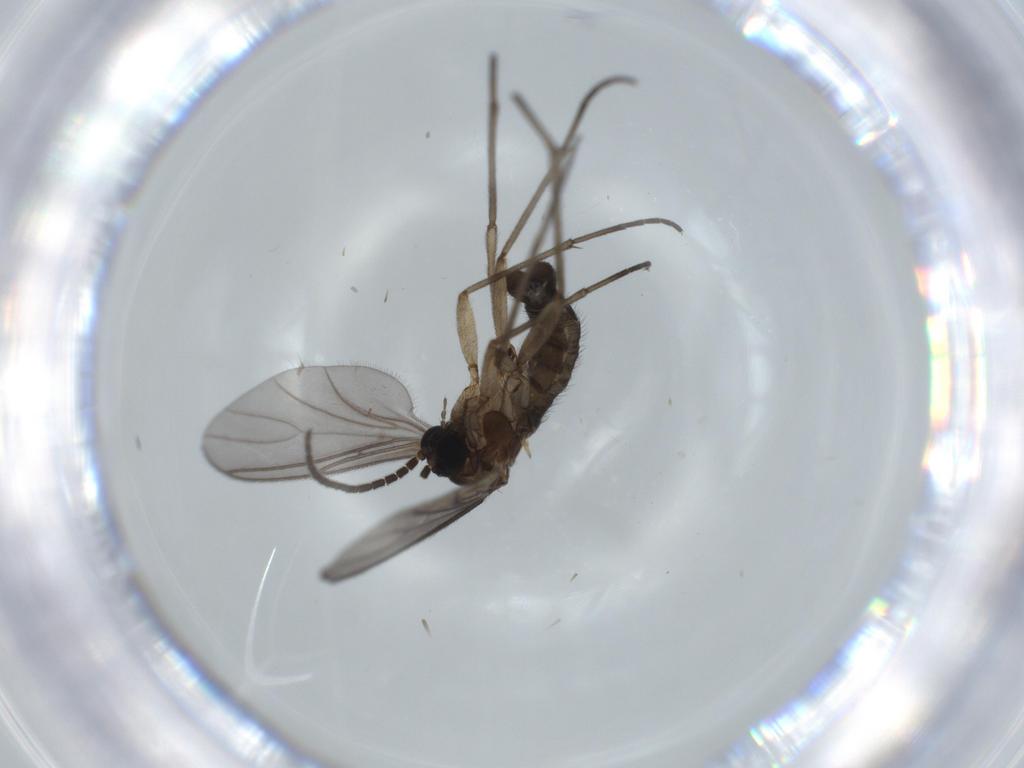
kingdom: Animalia
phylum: Arthropoda
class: Insecta
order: Diptera
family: Sciaridae
